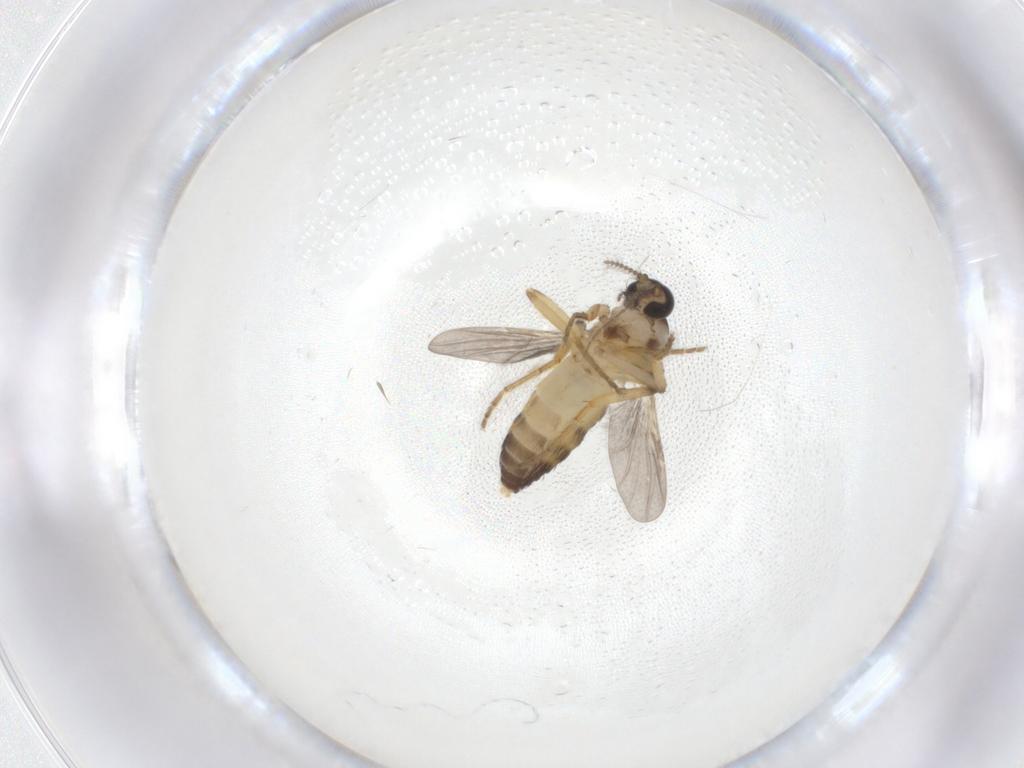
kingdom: Animalia
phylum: Arthropoda
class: Insecta
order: Diptera
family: Ceratopogonidae
